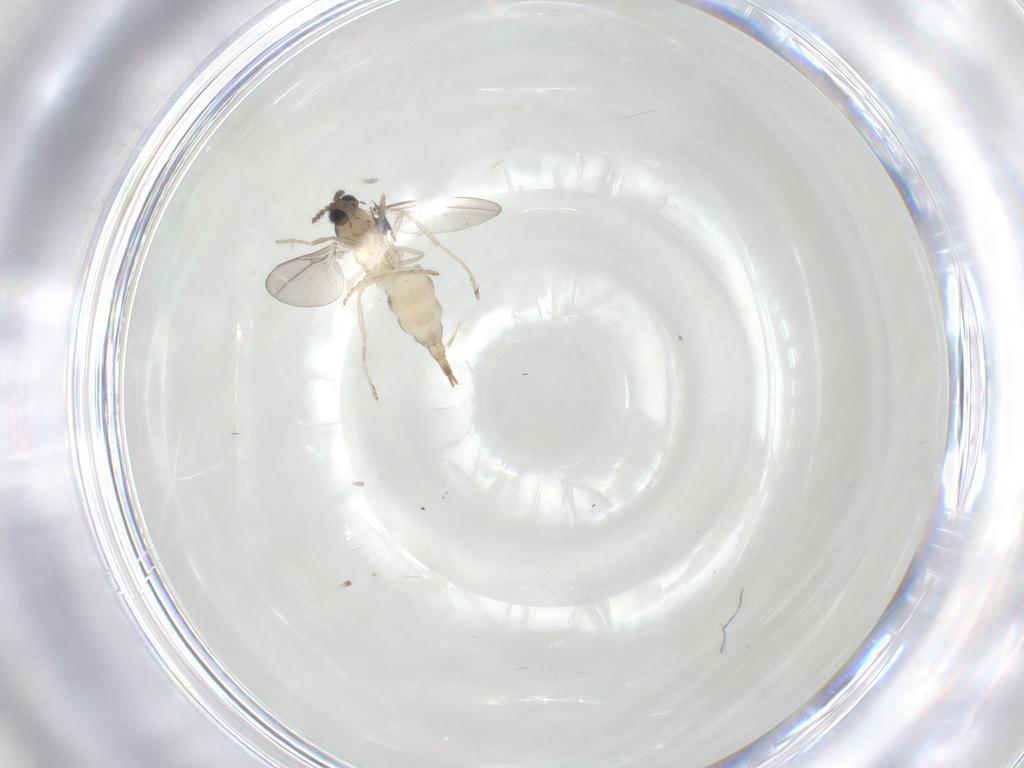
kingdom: Animalia
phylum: Arthropoda
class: Insecta
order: Diptera
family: Cecidomyiidae
